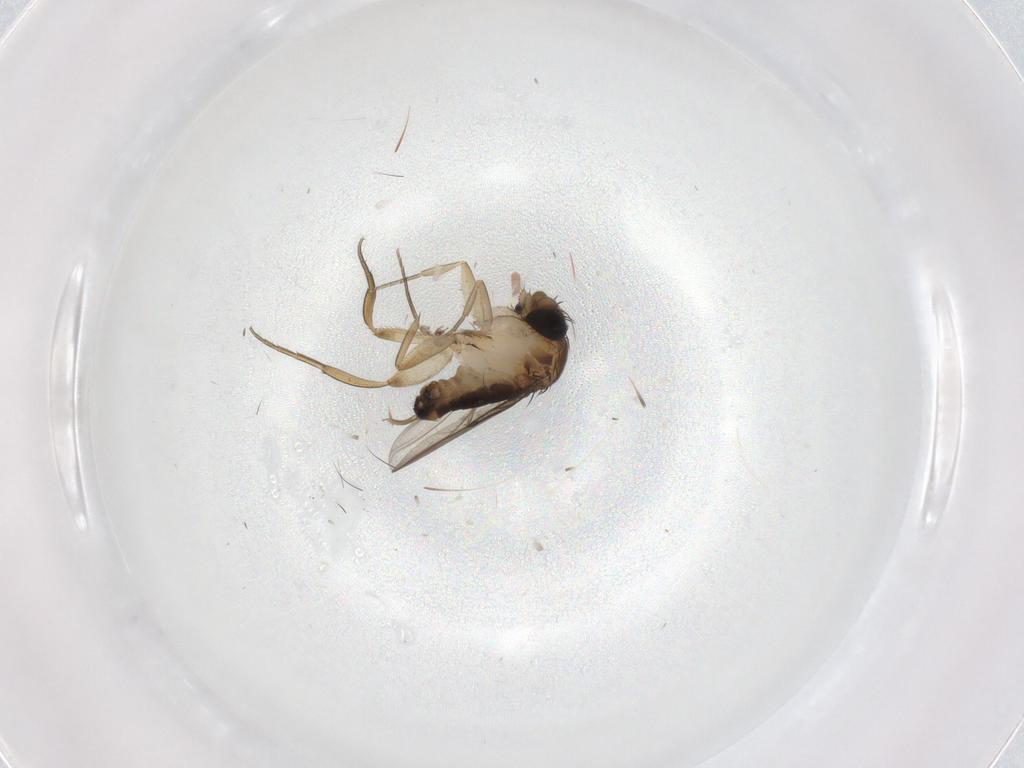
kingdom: Animalia
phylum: Arthropoda
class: Insecta
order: Diptera
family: Phoridae
